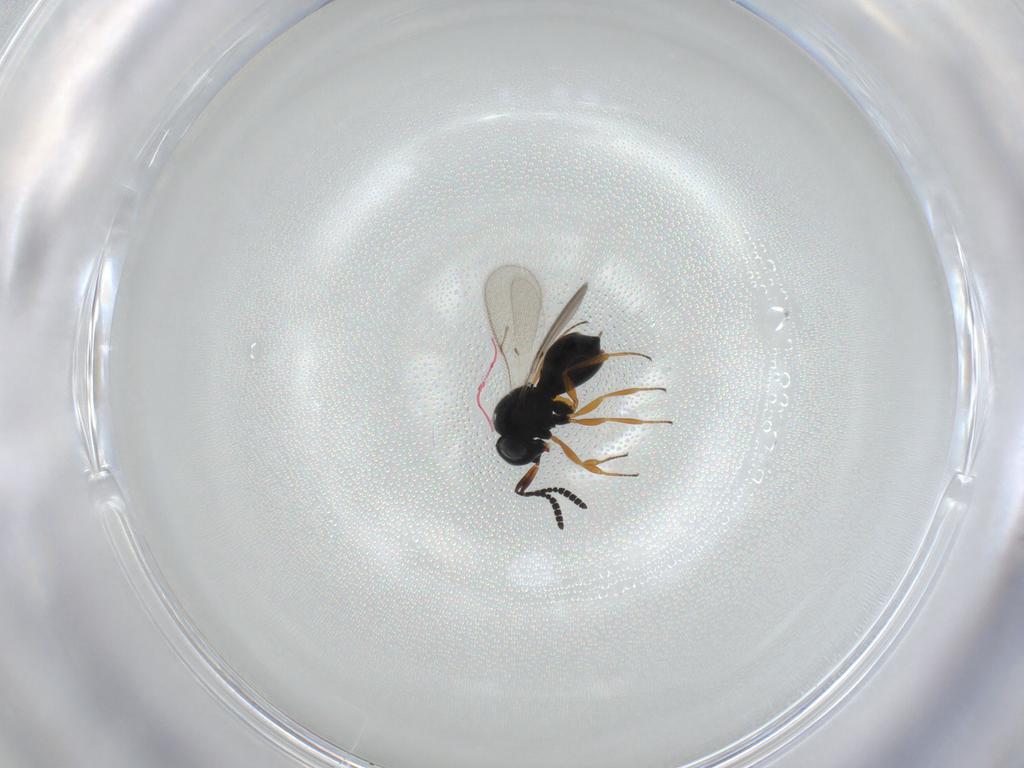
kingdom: Animalia
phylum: Arthropoda
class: Insecta
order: Hymenoptera
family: Scelionidae
